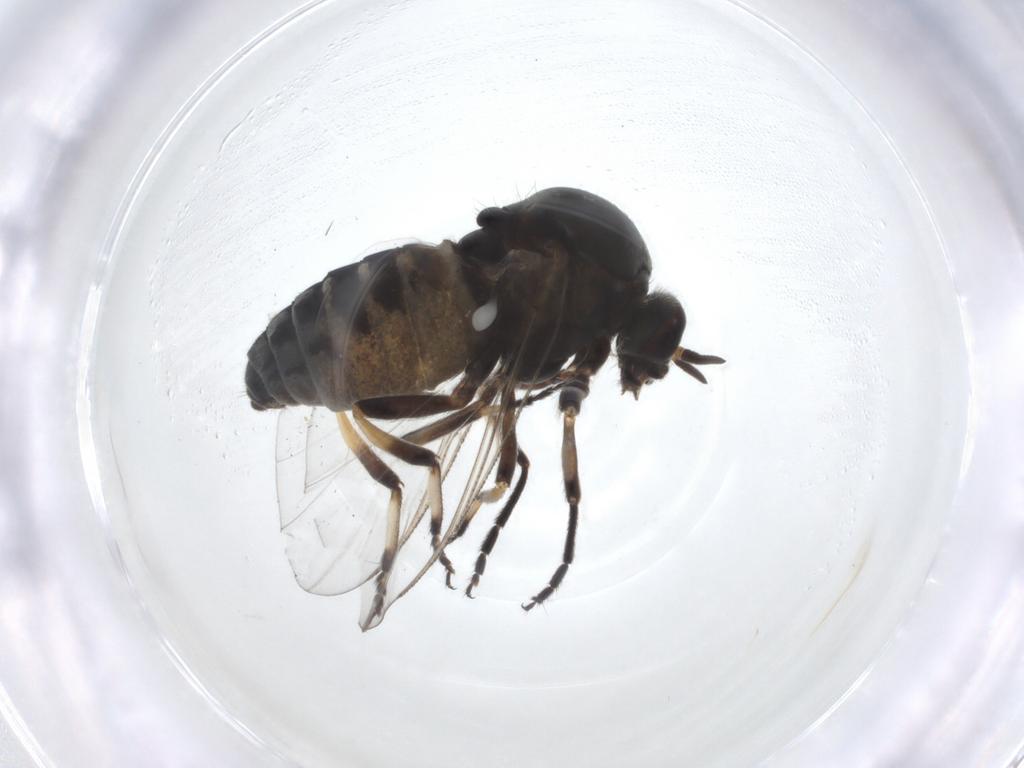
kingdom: Animalia
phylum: Arthropoda
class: Insecta
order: Diptera
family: Simuliidae
